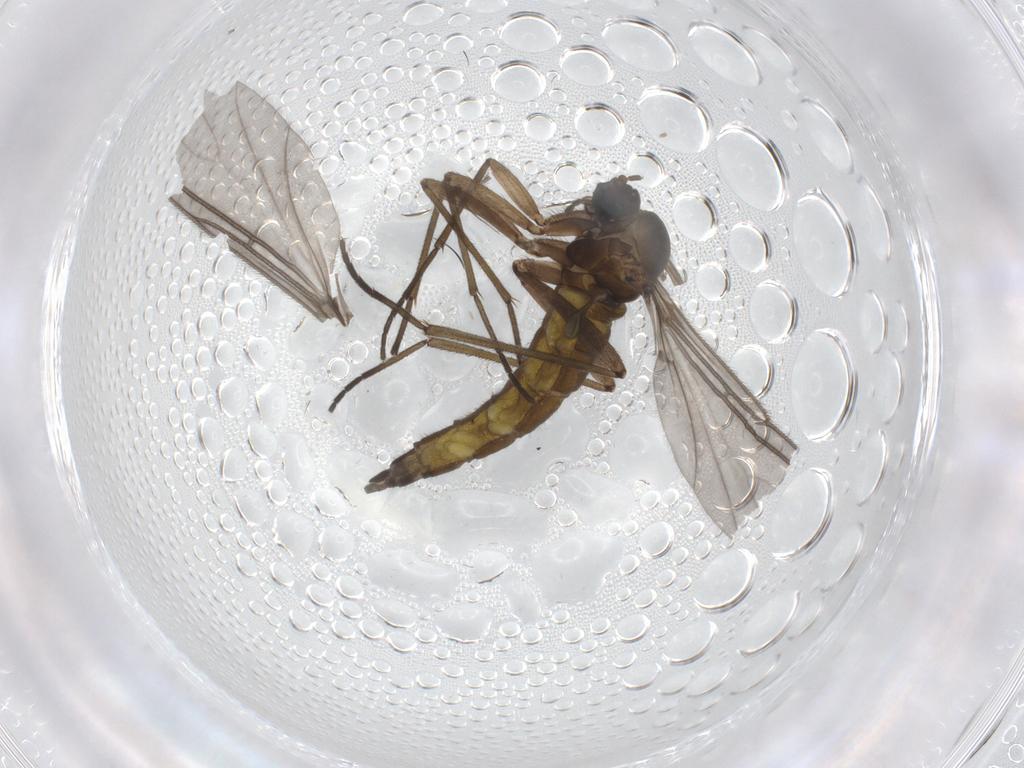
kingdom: Animalia
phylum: Arthropoda
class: Insecta
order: Diptera
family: Sciaridae
